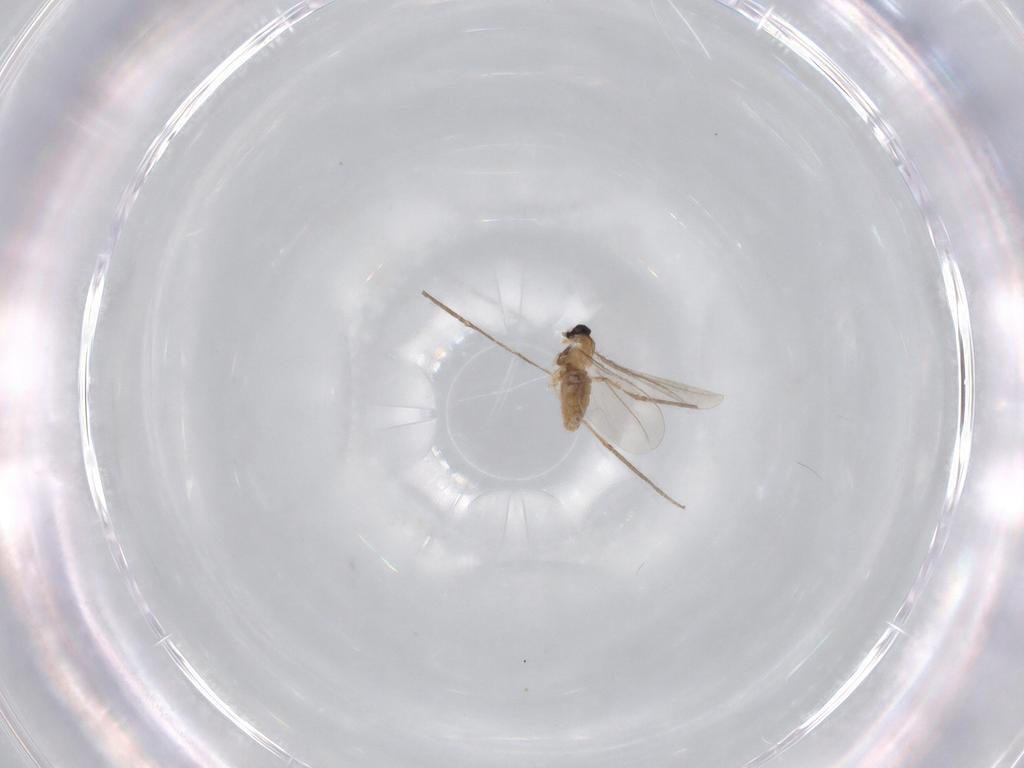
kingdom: Animalia
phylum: Arthropoda
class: Insecta
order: Diptera
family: Cecidomyiidae
